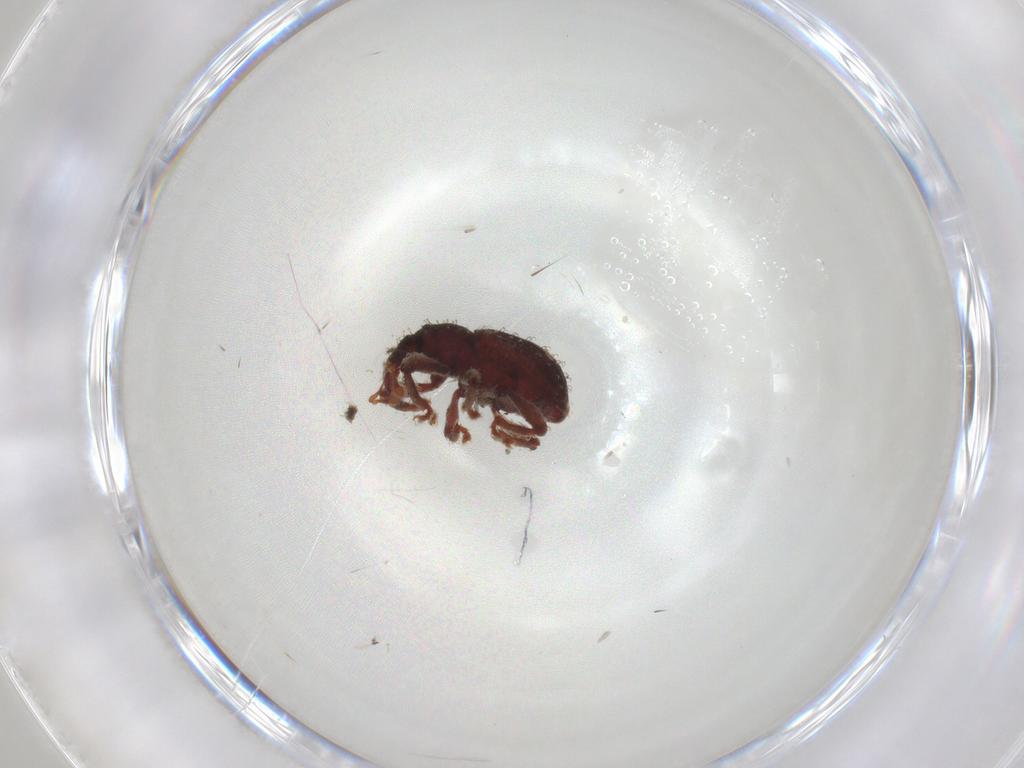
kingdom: Animalia
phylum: Arthropoda
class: Insecta
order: Coleoptera
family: Curculionidae
